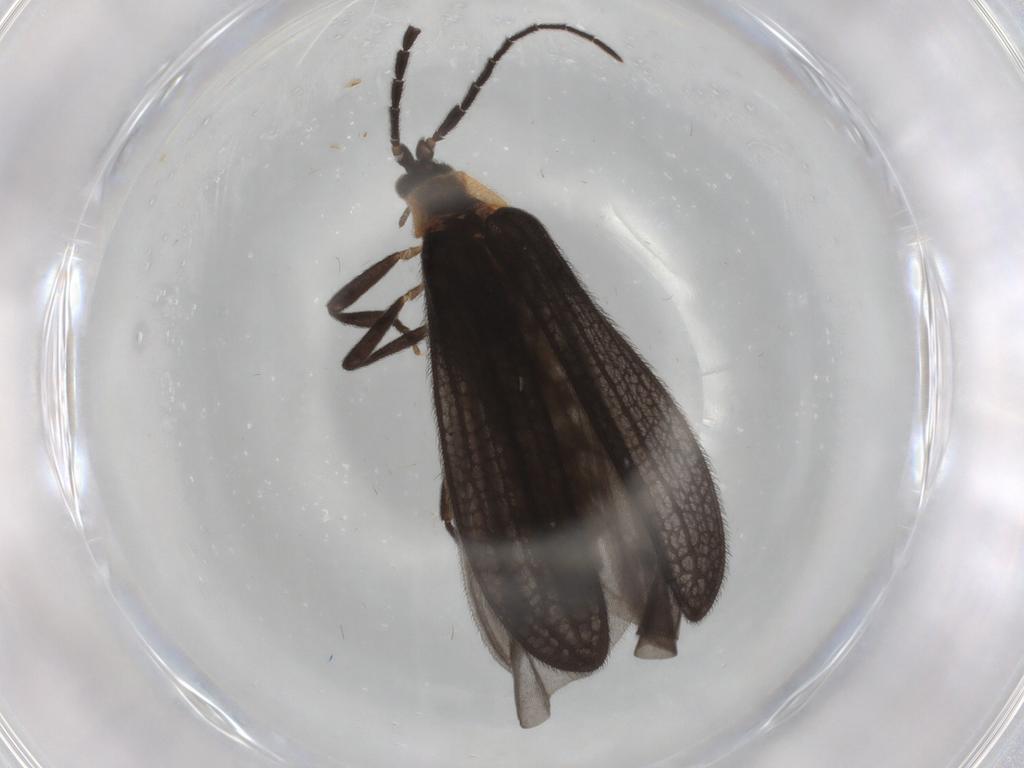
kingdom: Animalia
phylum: Arthropoda
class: Insecta
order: Coleoptera
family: Lycidae
